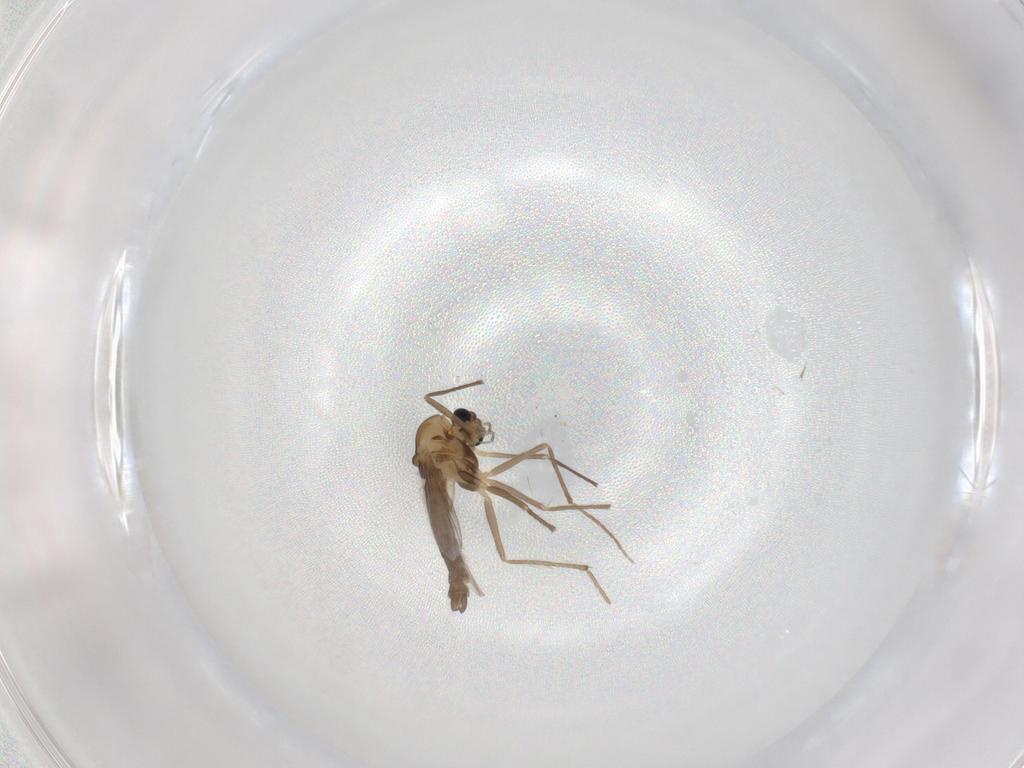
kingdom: Animalia
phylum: Arthropoda
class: Insecta
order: Diptera
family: Chironomidae
